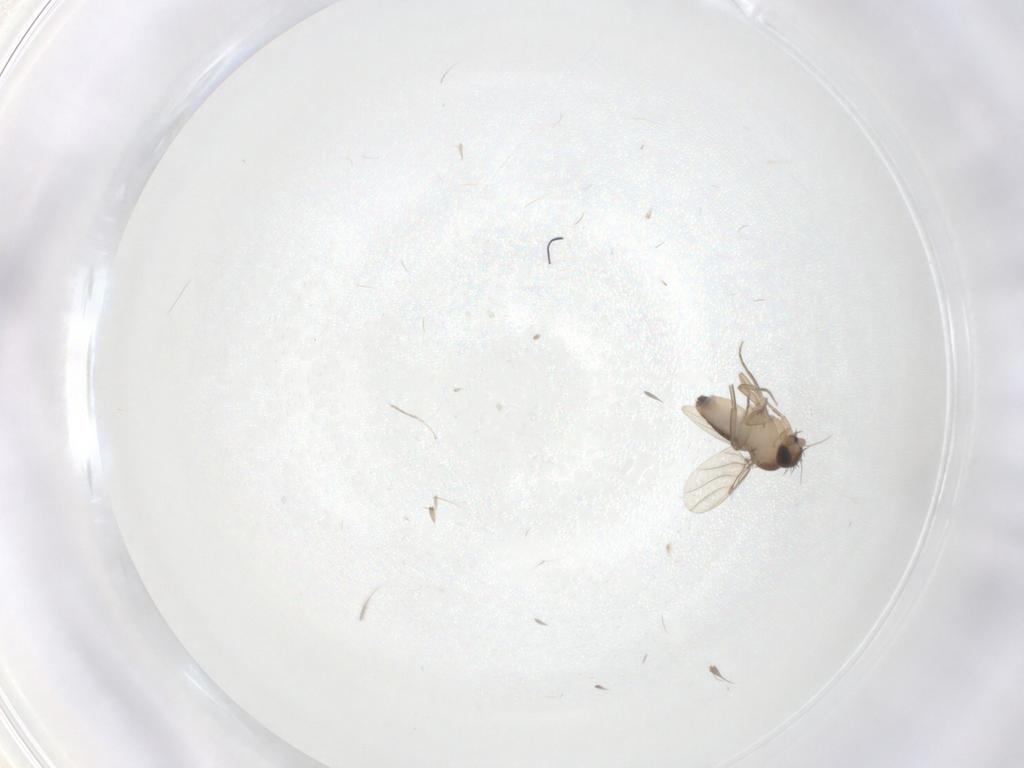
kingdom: Animalia
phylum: Arthropoda
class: Insecta
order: Diptera
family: Cecidomyiidae
